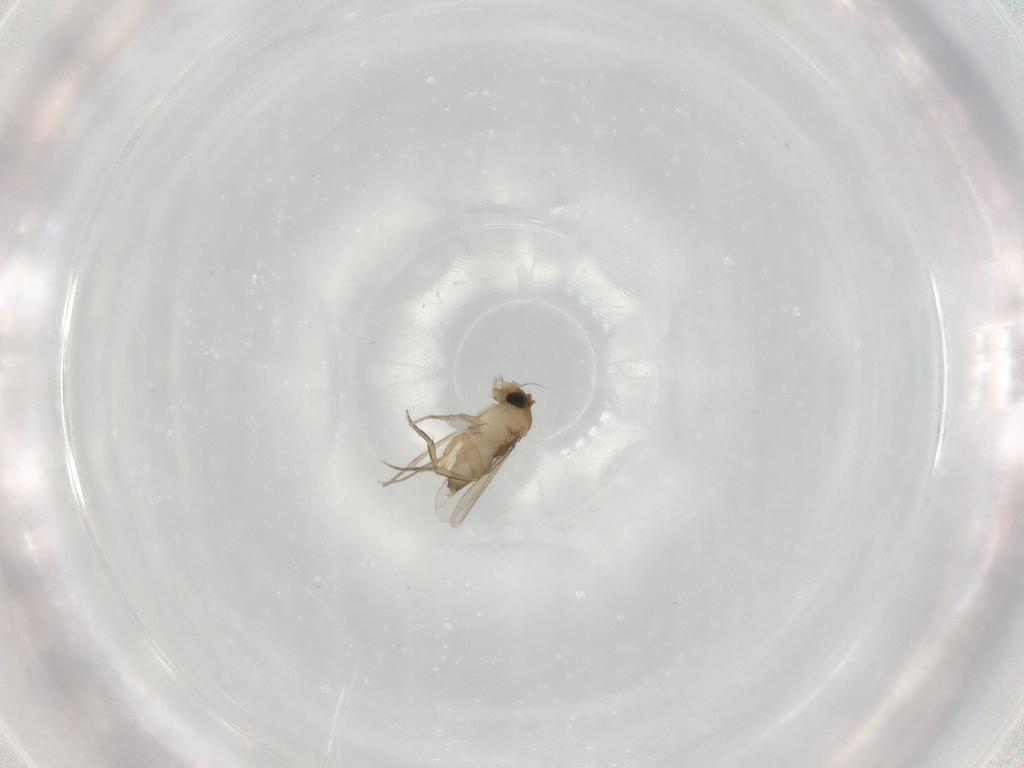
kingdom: Animalia
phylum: Arthropoda
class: Insecta
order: Diptera
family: Phoridae
